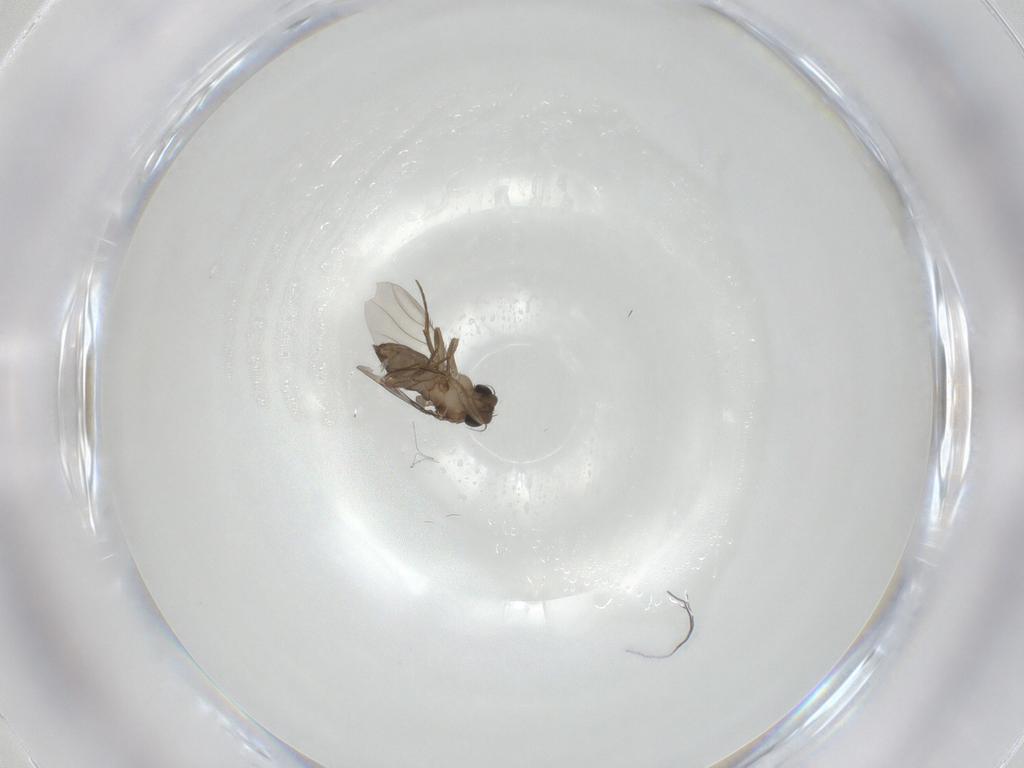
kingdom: Animalia
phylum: Arthropoda
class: Insecta
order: Diptera
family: Phoridae
